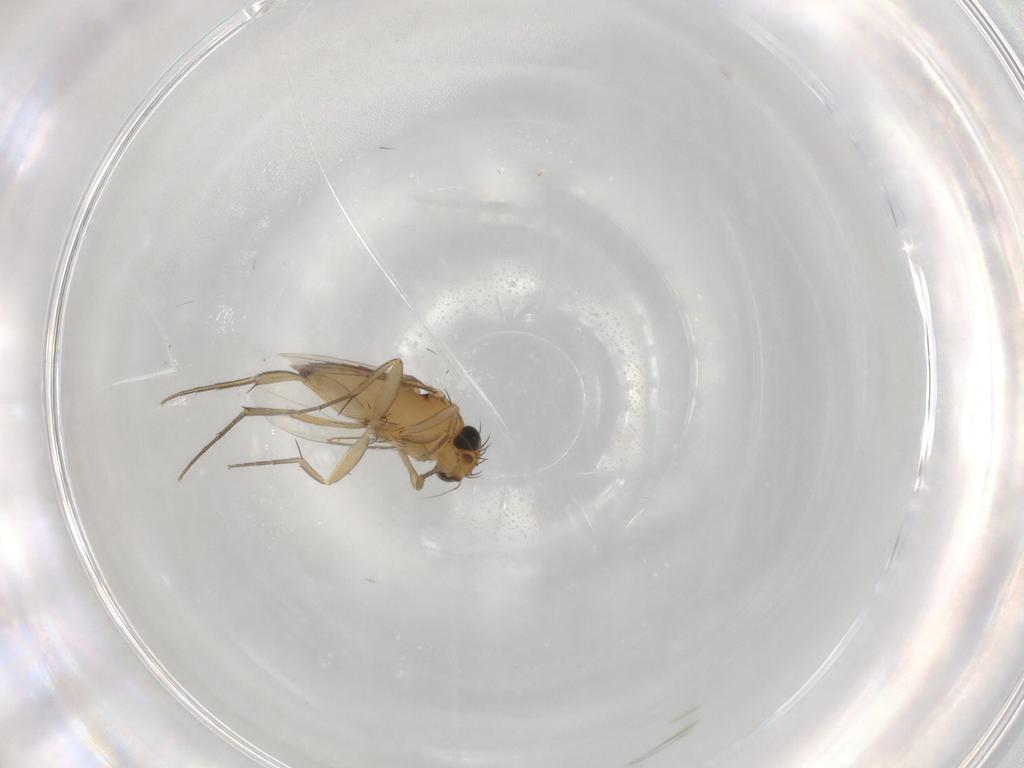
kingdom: Animalia
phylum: Arthropoda
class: Insecta
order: Diptera
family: Phoridae
